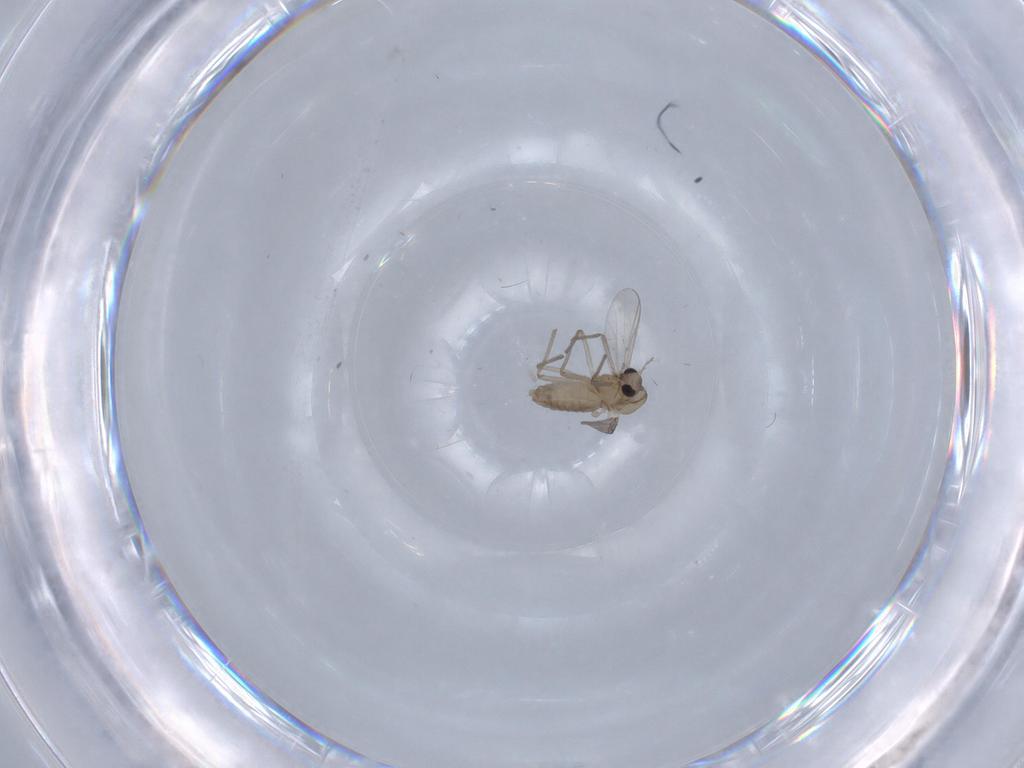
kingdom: Animalia
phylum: Arthropoda
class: Insecta
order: Diptera
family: Chironomidae
